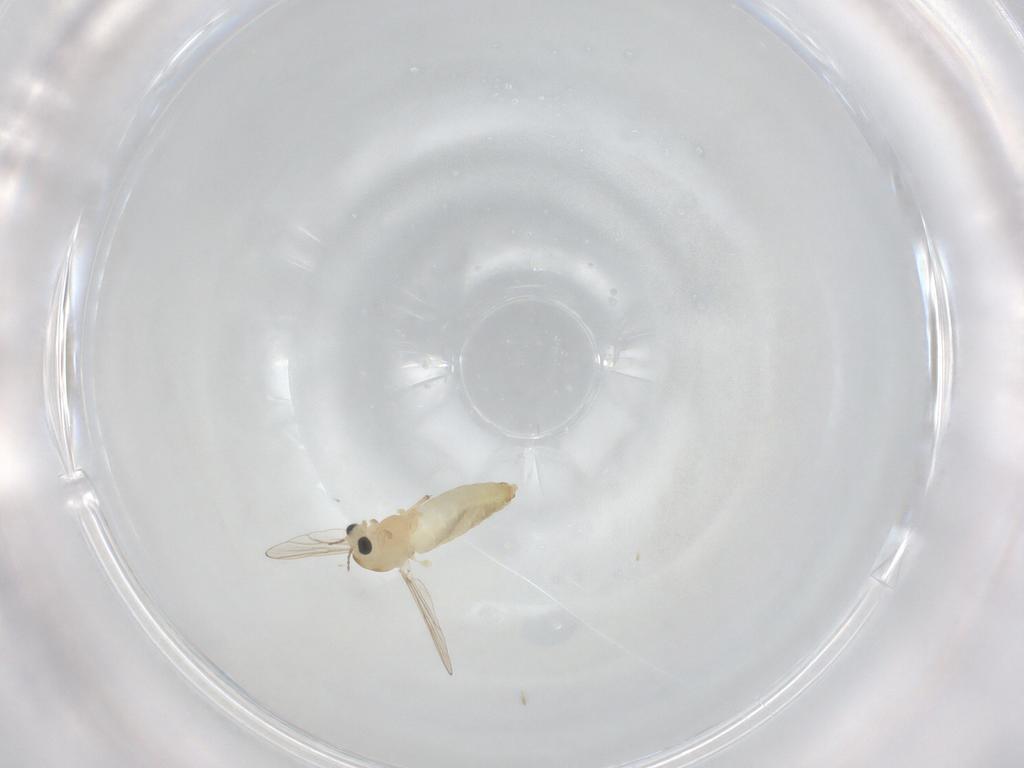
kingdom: Animalia
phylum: Arthropoda
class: Insecta
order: Diptera
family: Chironomidae
